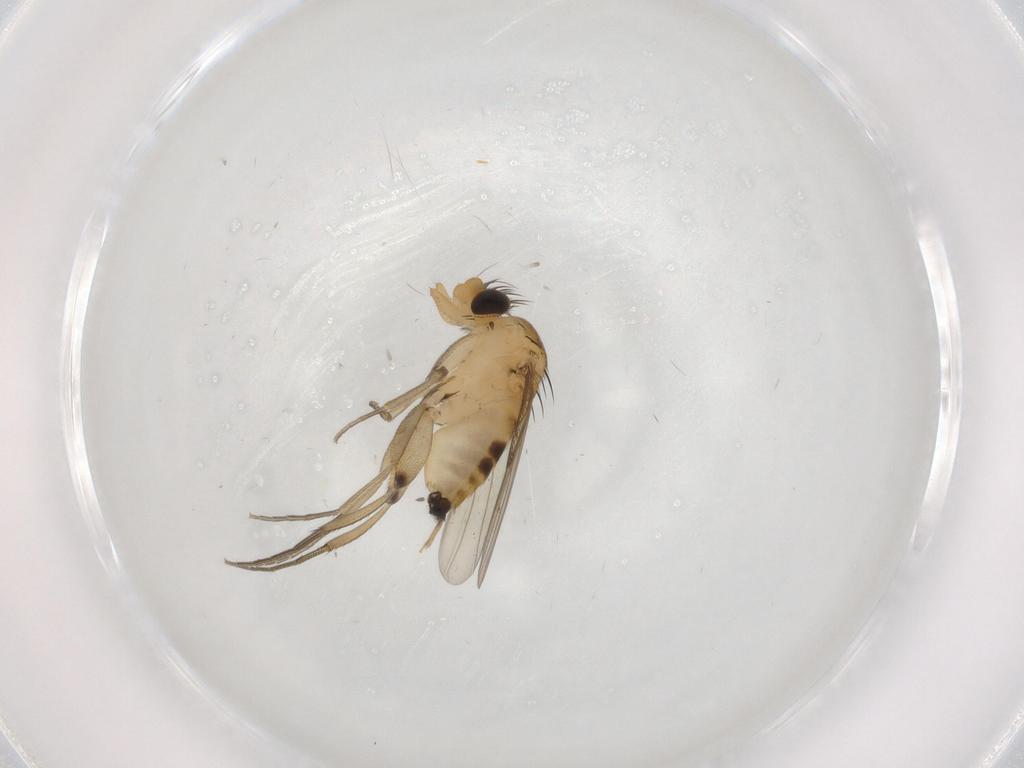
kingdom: Animalia
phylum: Arthropoda
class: Insecta
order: Diptera
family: Phoridae
